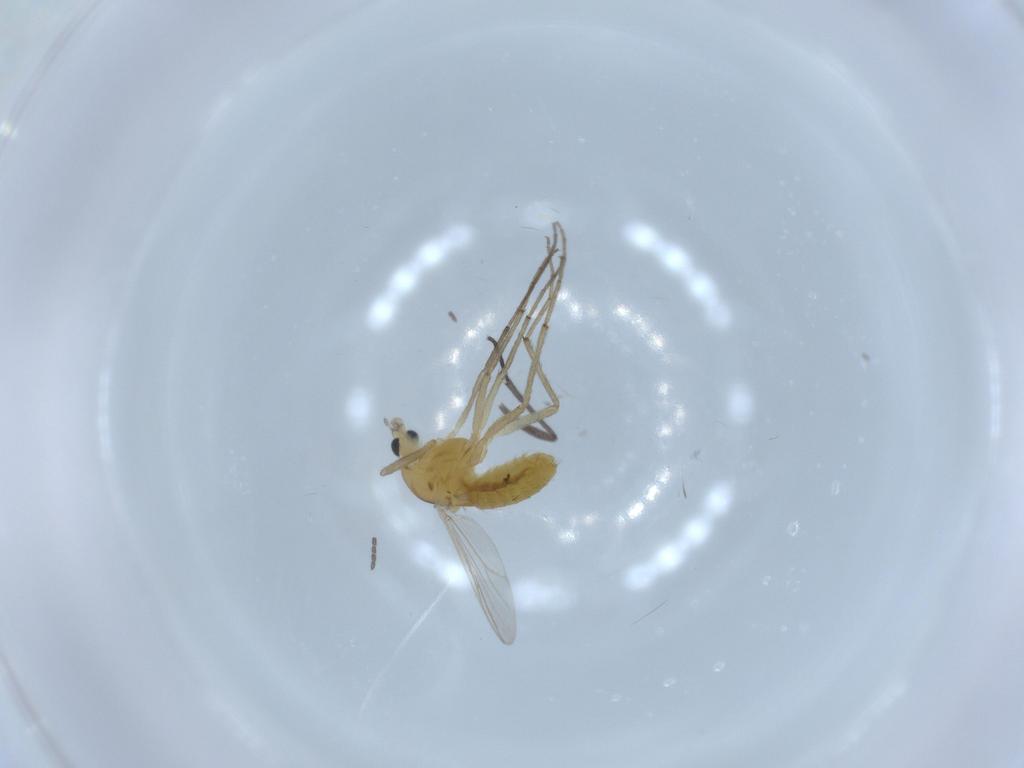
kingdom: Animalia
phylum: Arthropoda
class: Insecta
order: Diptera
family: Chironomidae
